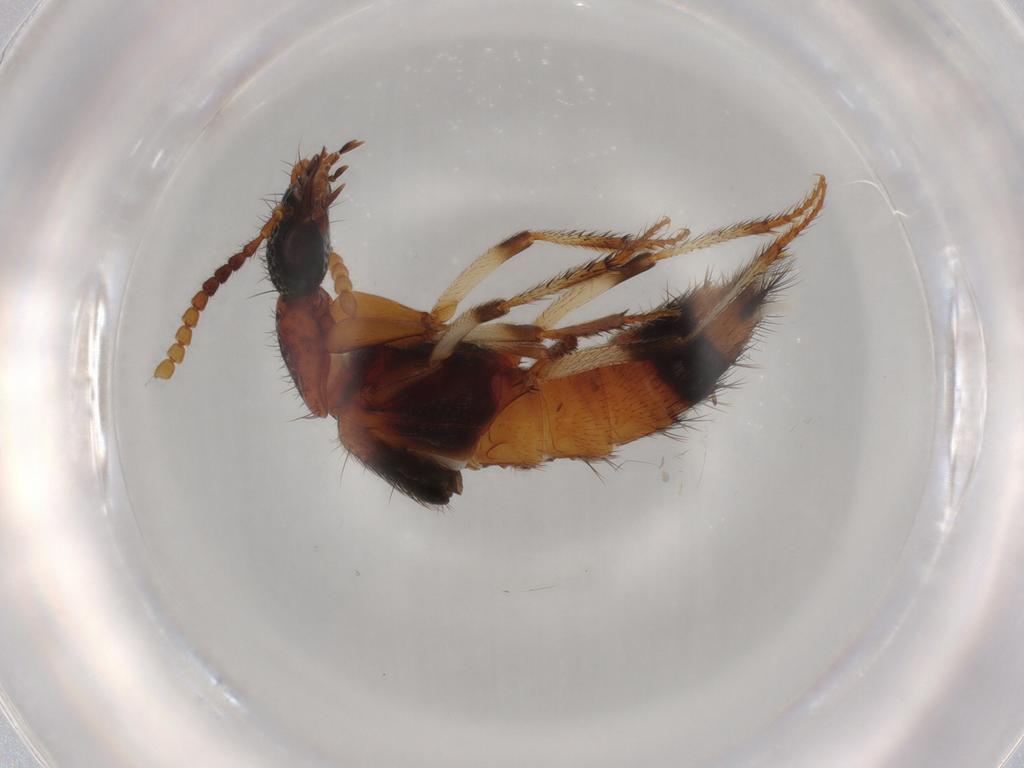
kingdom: Animalia
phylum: Arthropoda
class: Insecta
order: Coleoptera
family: Staphylinidae
